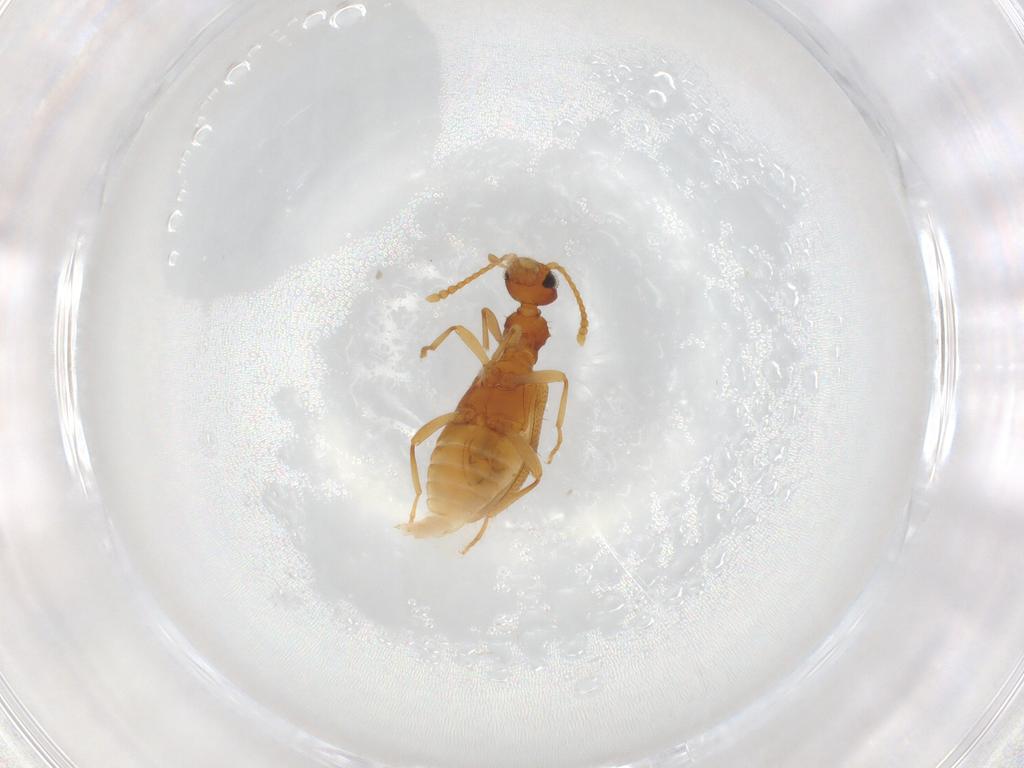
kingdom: Animalia
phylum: Arthropoda
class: Insecta
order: Coleoptera
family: Anthicidae
